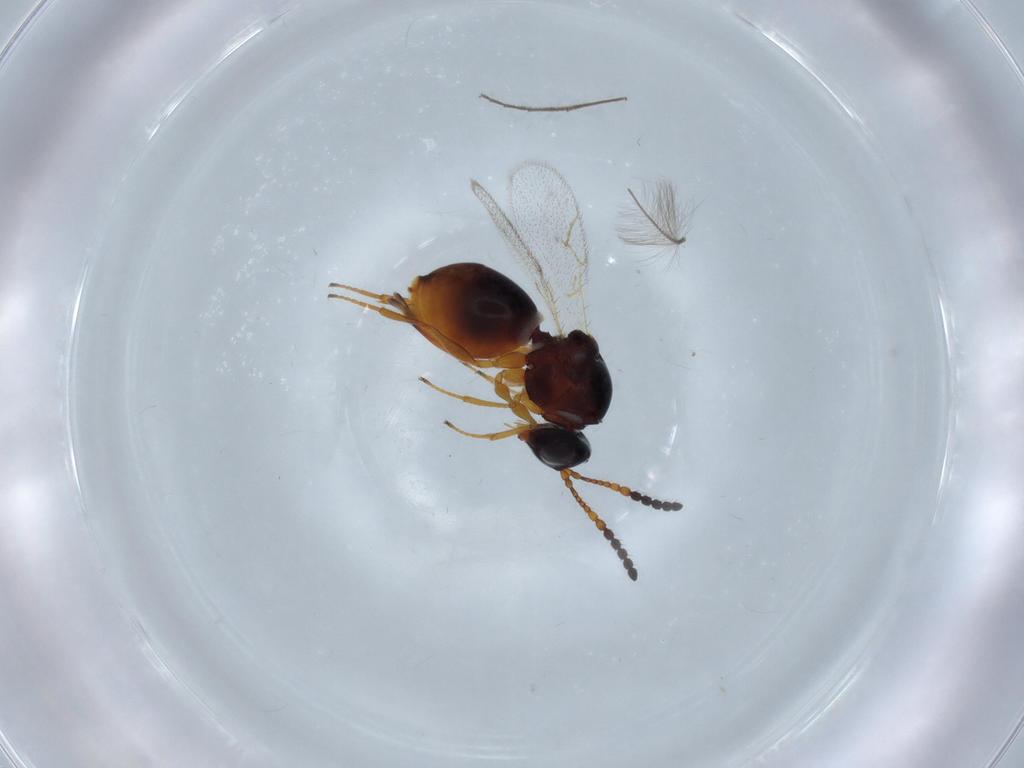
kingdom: Animalia
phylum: Arthropoda
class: Insecta
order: Hymenoptera
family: Figitidae
